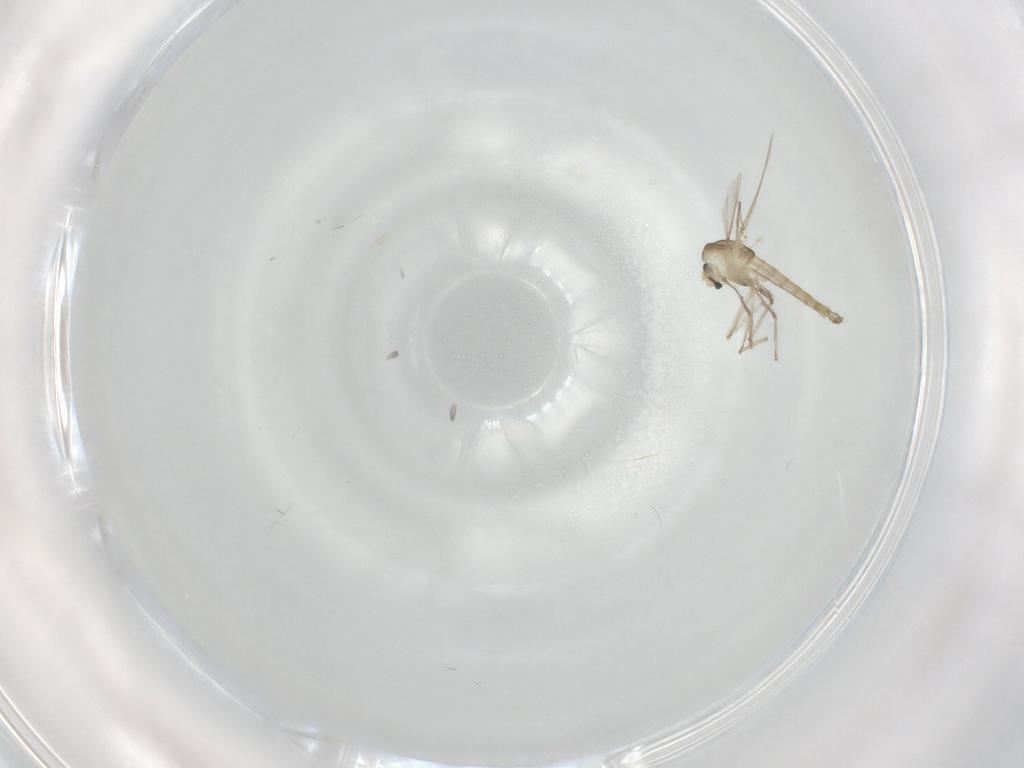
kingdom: Animalia
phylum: Arthropoda
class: Insecta
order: Diptera
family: Chironomidae
